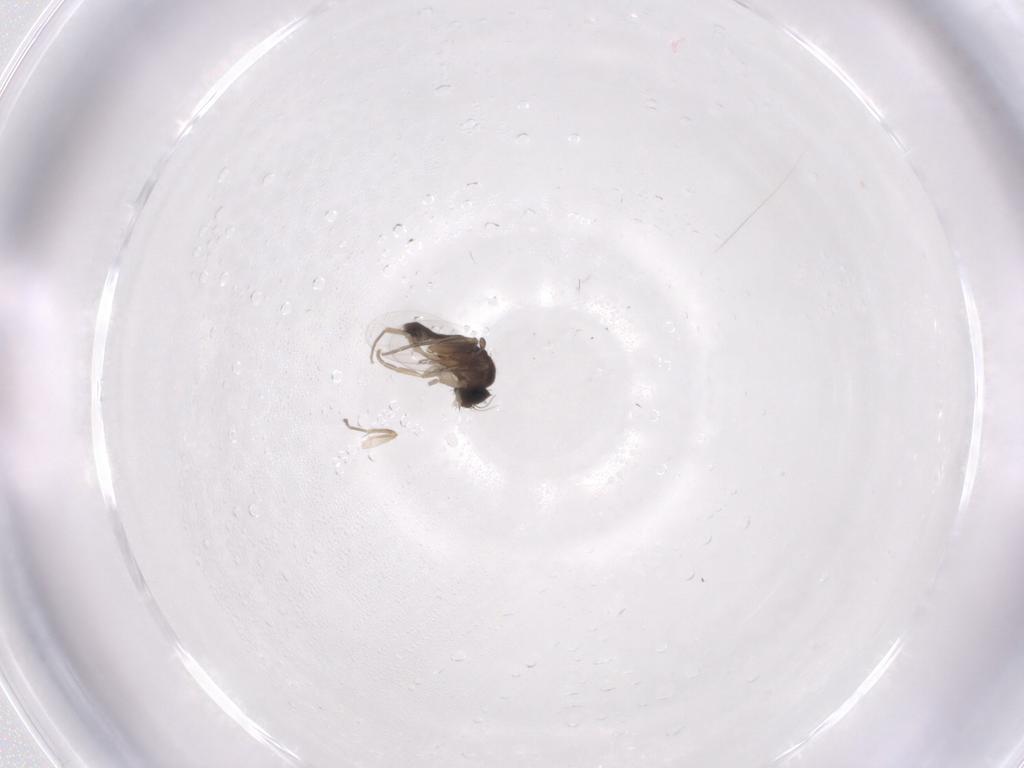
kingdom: Animalia
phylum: Arthropoda
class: Insecta
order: Diptera
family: Phoridae
